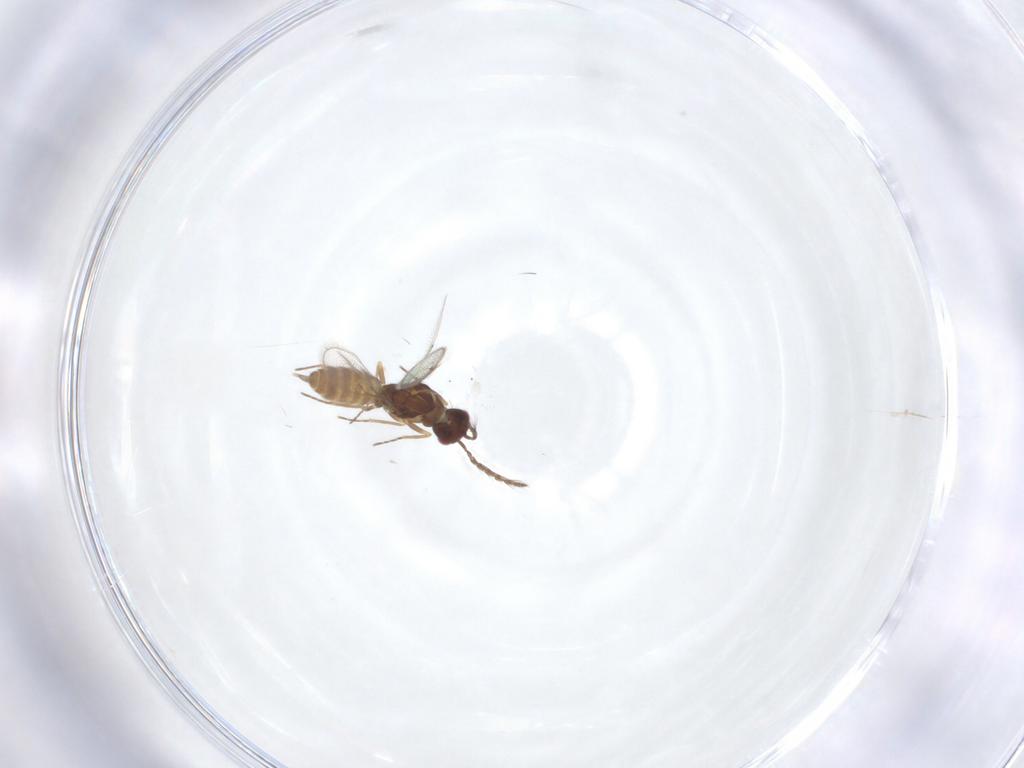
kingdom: Animalia
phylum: Arthropoda
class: Insecta
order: Hymenoptera
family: Eulophidae
